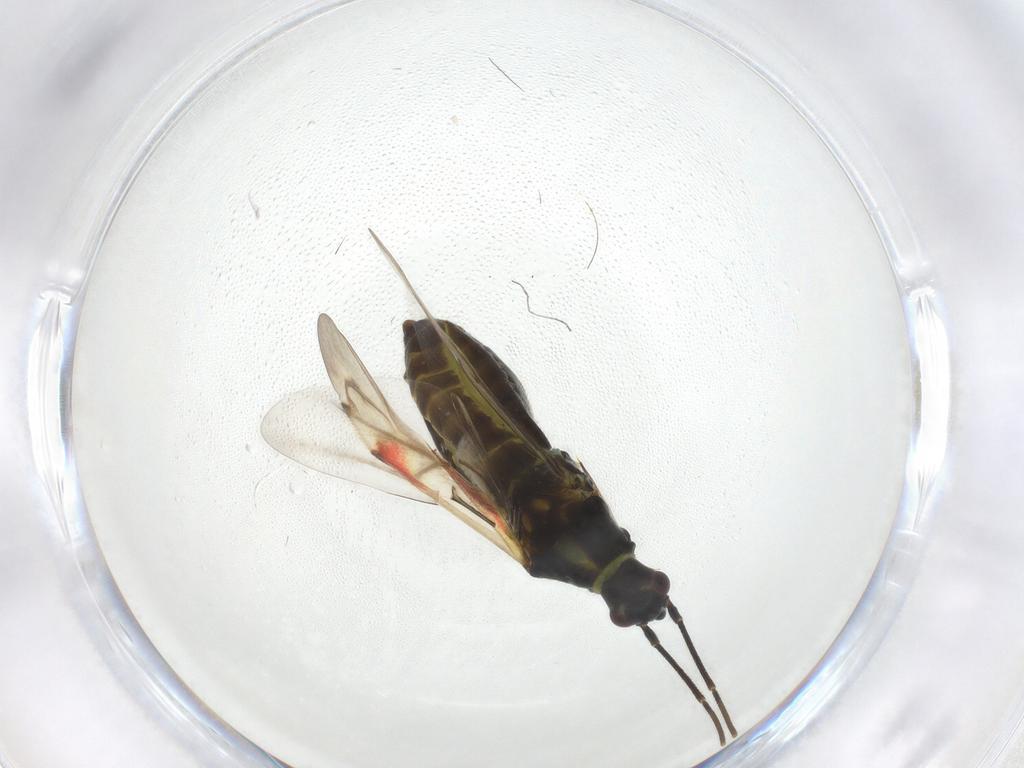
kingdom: Animalia
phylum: Arthropoda
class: Insecta
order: Hemiptera
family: Miridae
